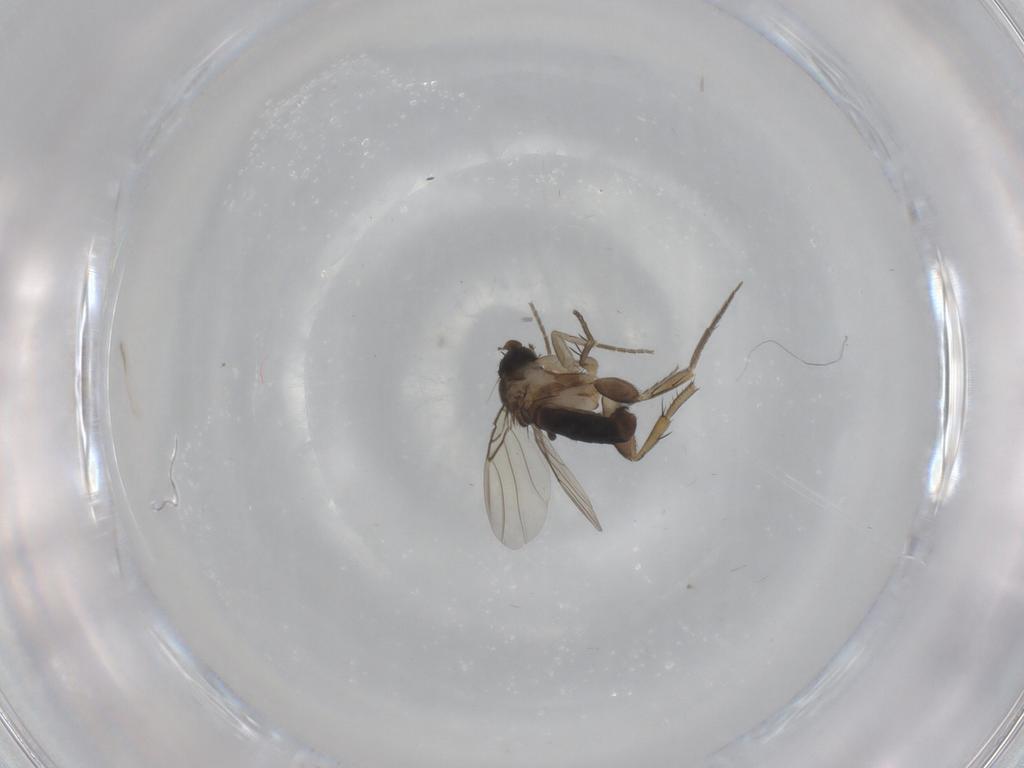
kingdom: Animalia
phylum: Arthropoda
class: Insecta
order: Diptera
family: Phoridae
